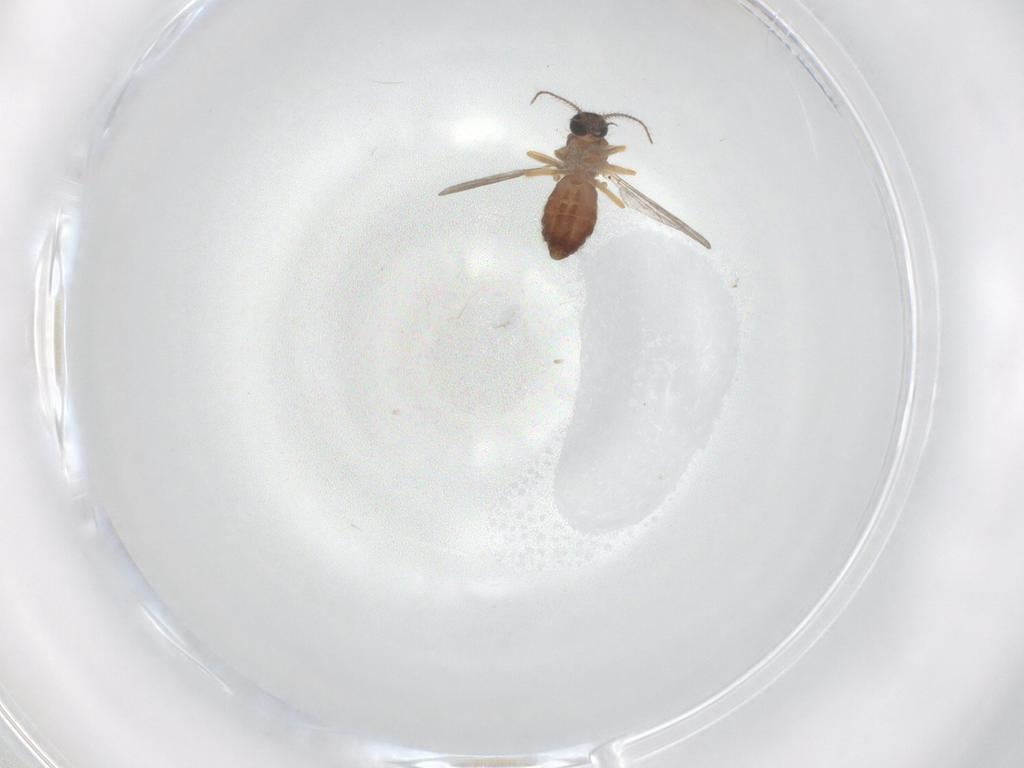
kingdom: Animalia
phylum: Arthropoda
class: Insecta
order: Diptera
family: Ceratopogonidae
